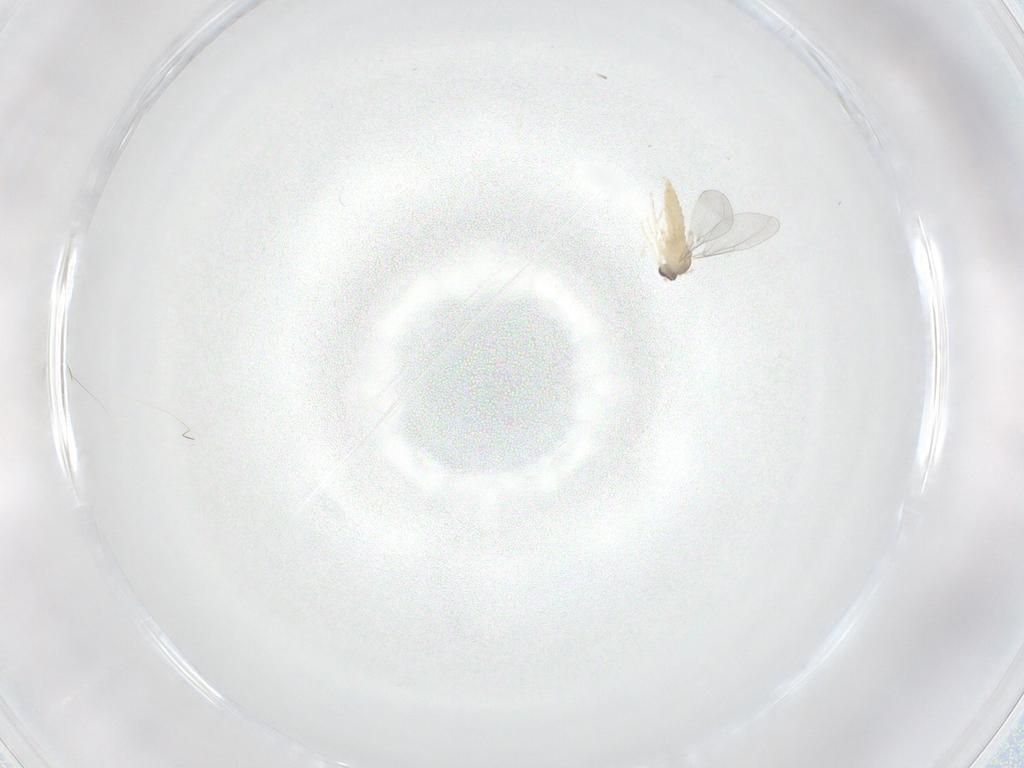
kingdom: Animalia
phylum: Arthropoda
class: Insecta
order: Diptera
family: Cecidomyiidae
